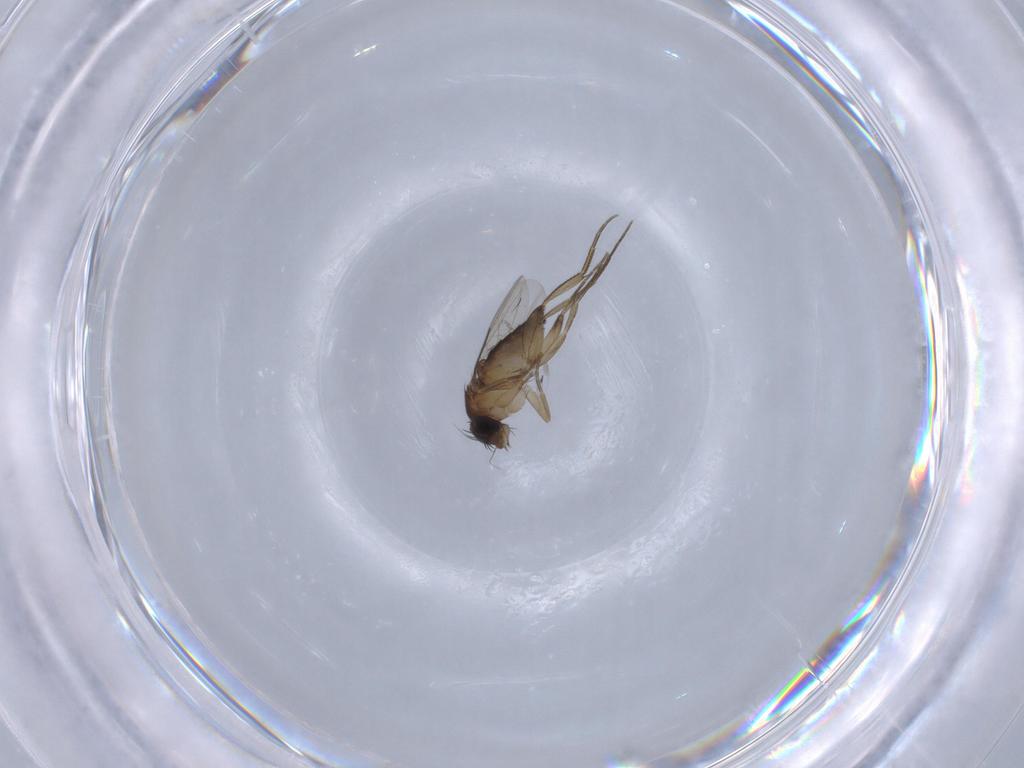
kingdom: Animalia
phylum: Arthropoda
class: Insecta
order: Diptera
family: Phoridae
